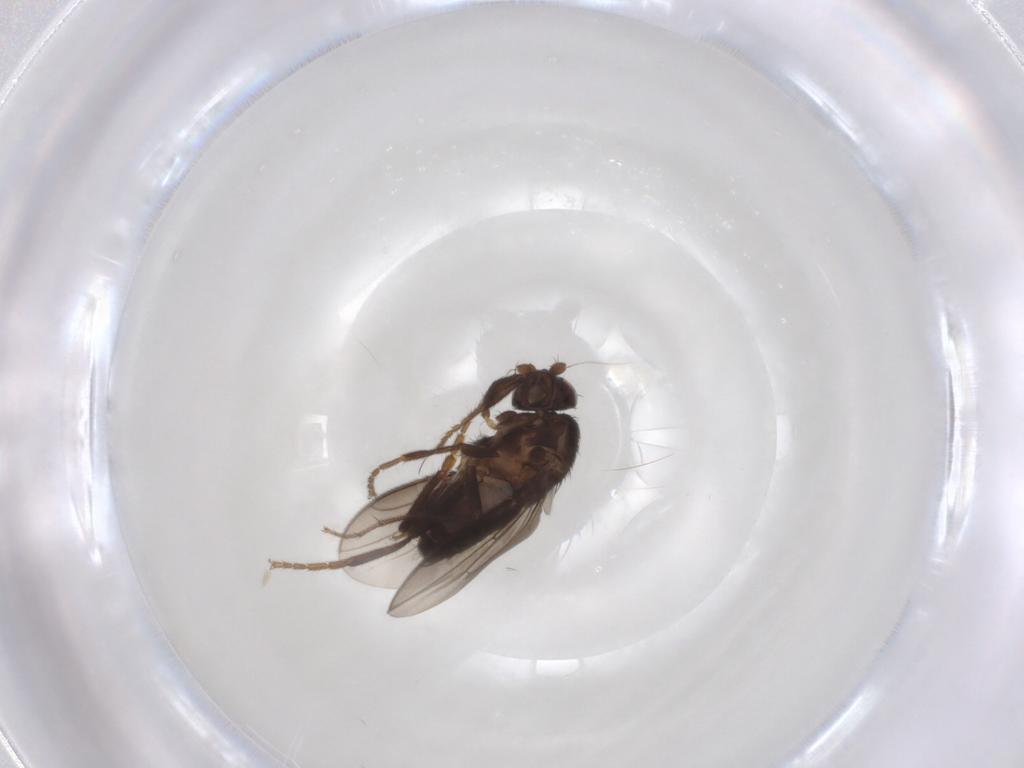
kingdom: Animalia
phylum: Arthropoda
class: Insecta
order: Diptera
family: Sphaeroceridae
